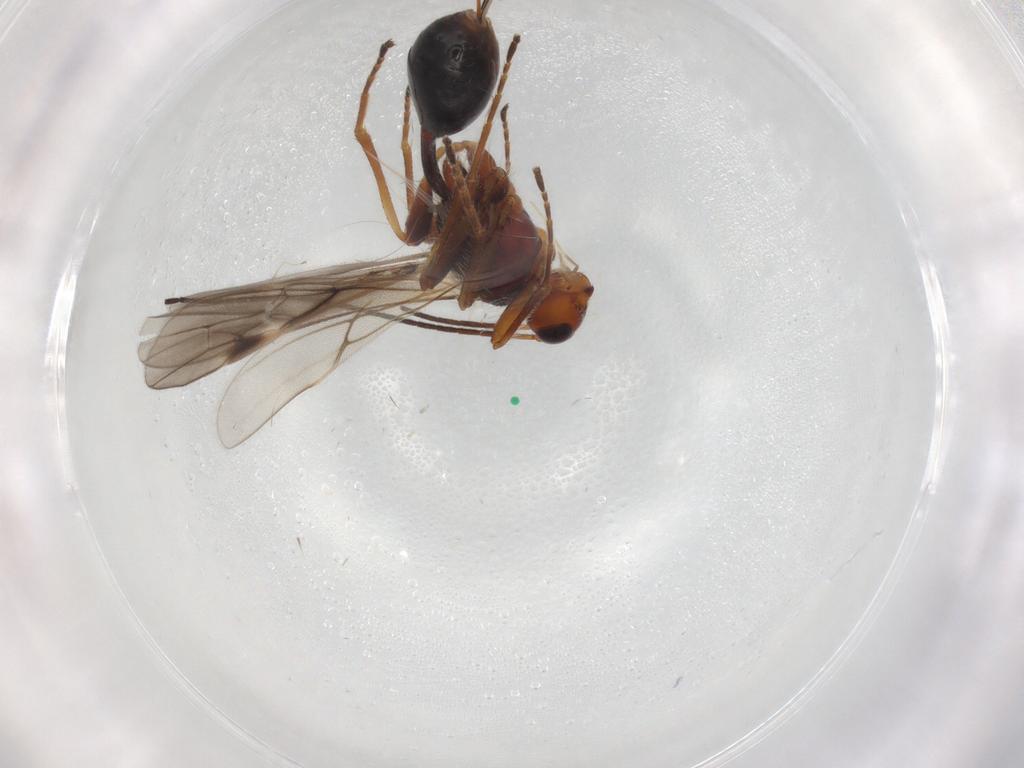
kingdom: Animalia
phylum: Arthropoda
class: Insecta
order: Hymenoptera
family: Braconidae
